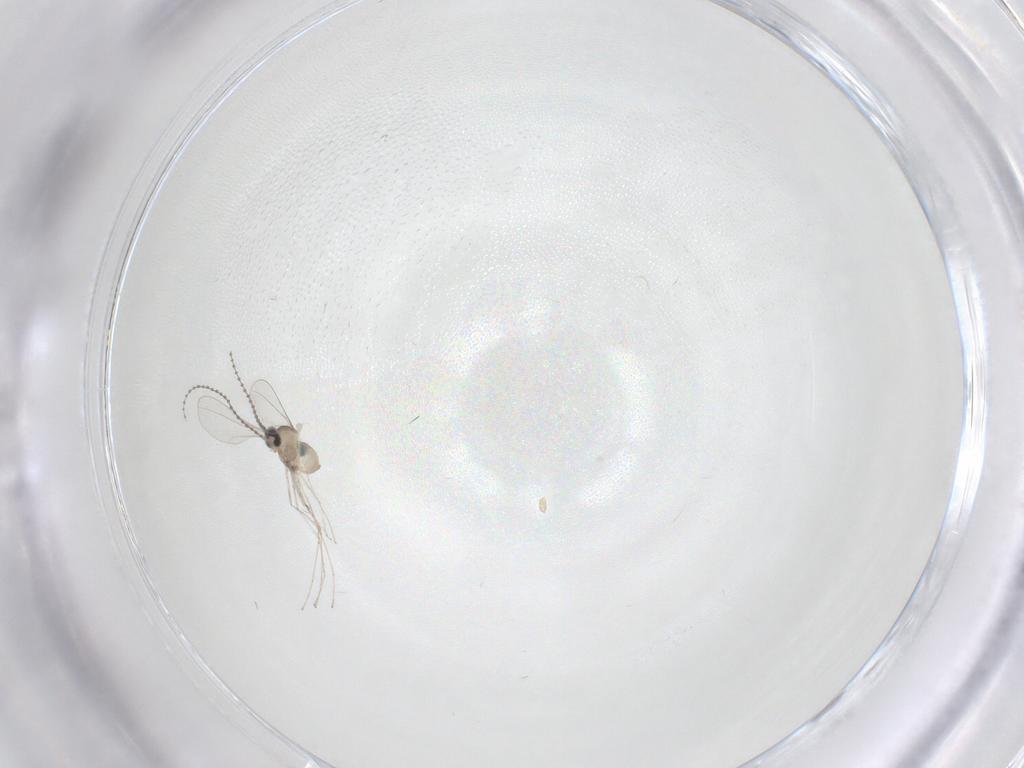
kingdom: Animalia
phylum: Arthropoda
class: Insecta
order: Diptera
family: Cecidomyiidae
